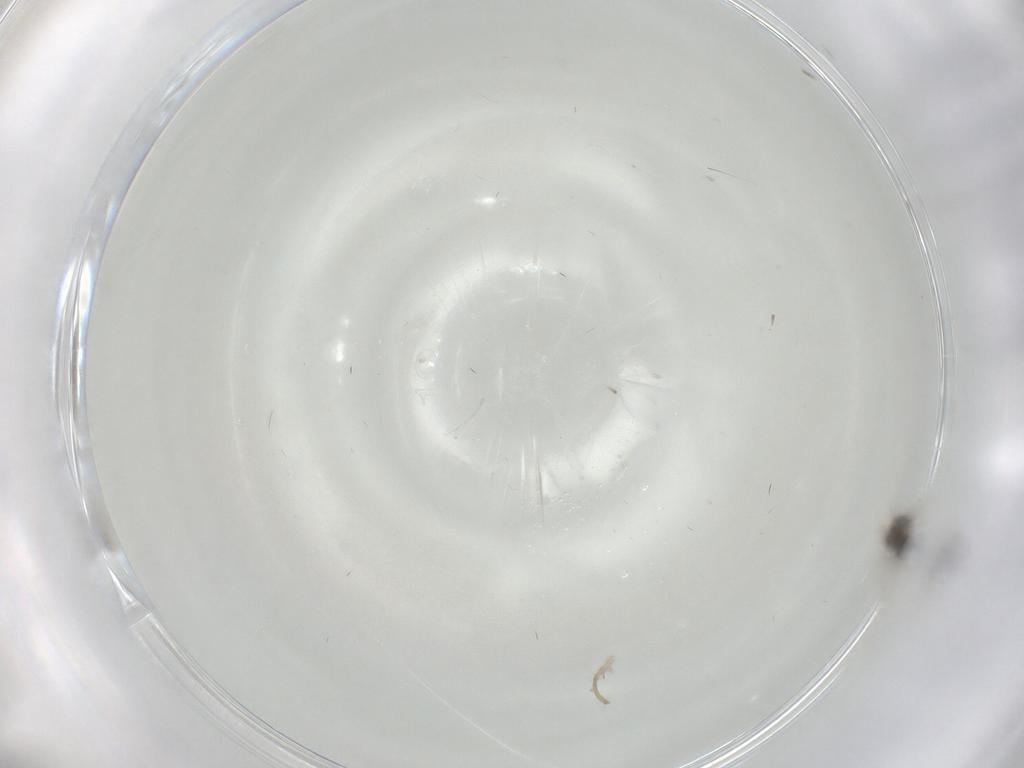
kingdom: Animalia
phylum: Arthropoda
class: Insecta
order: Diptera
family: Cecidomyiidae
